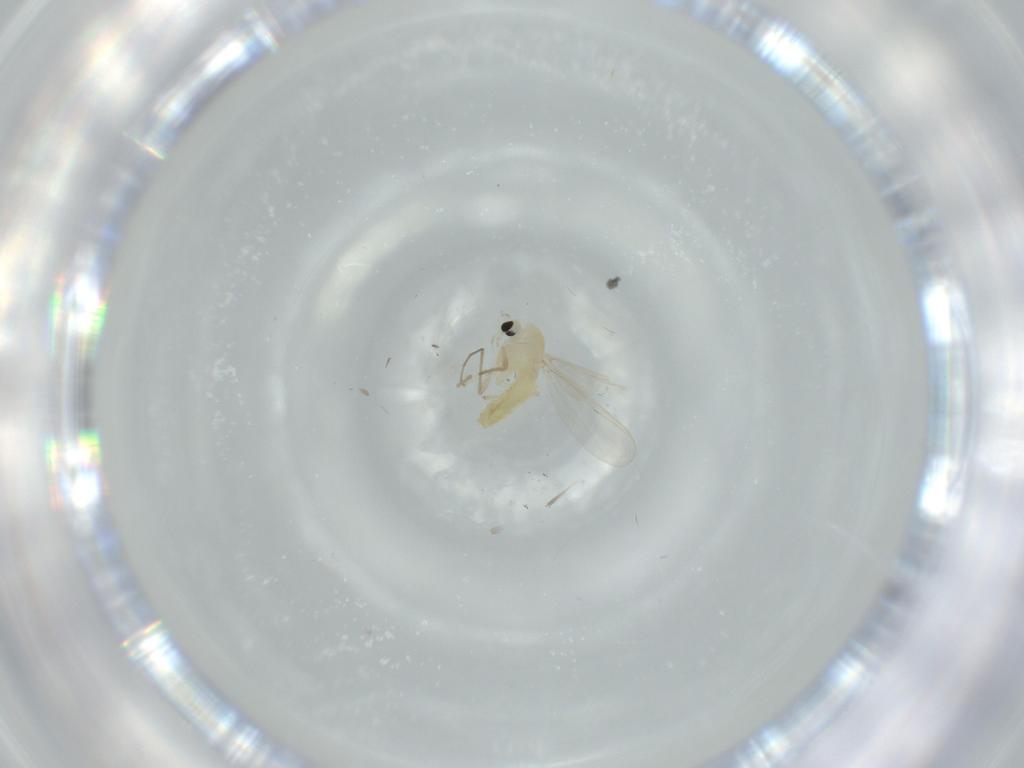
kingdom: Animalia
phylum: Arthropoda
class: Insecta
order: Diptera
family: Chironomidae
